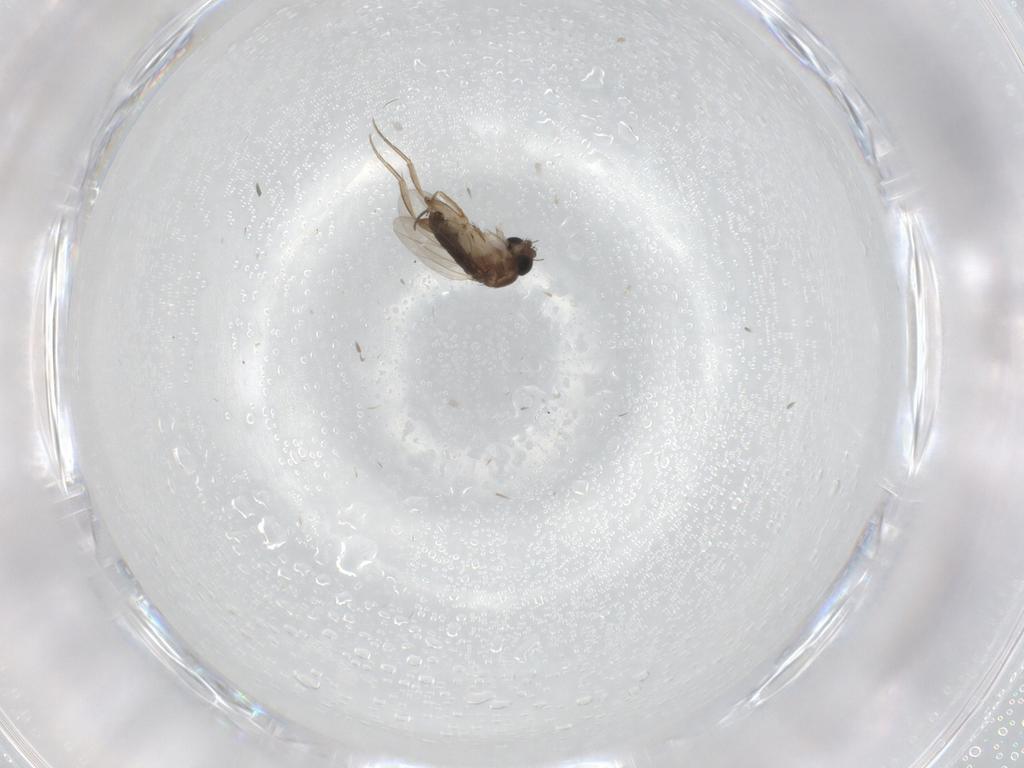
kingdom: Animalia
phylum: Arthropoda
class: Insecta
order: Diptera
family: Phoridae
